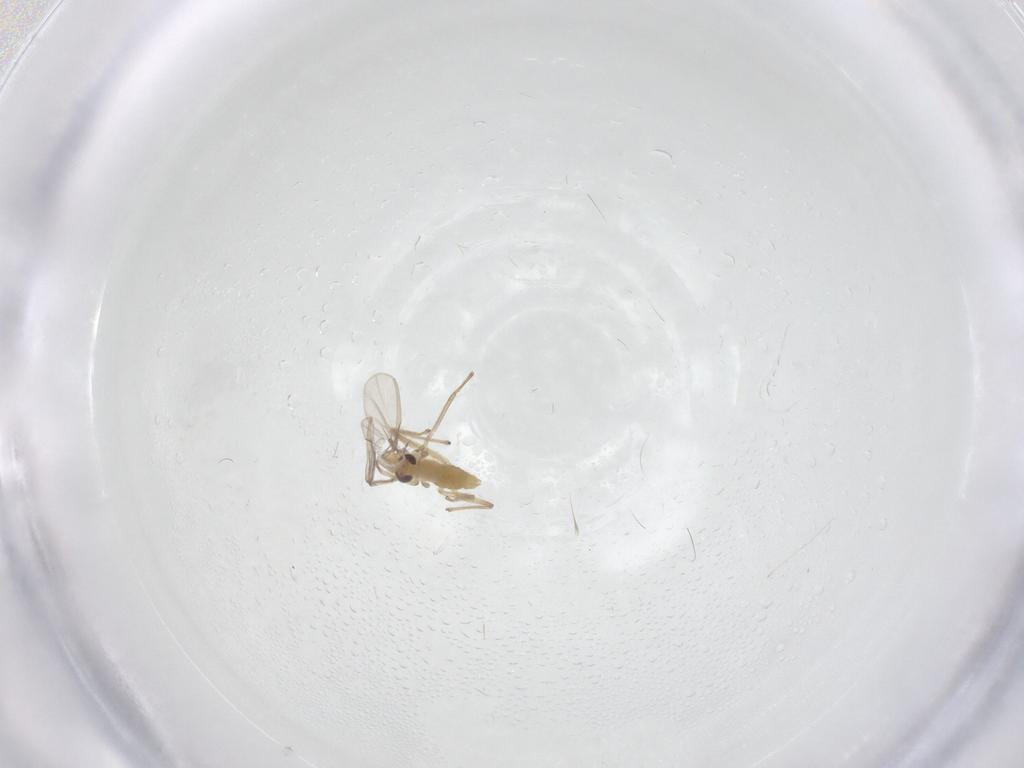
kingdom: Animalia
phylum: Arthropoda
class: Insecta
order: Diptera
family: Chironomidae
